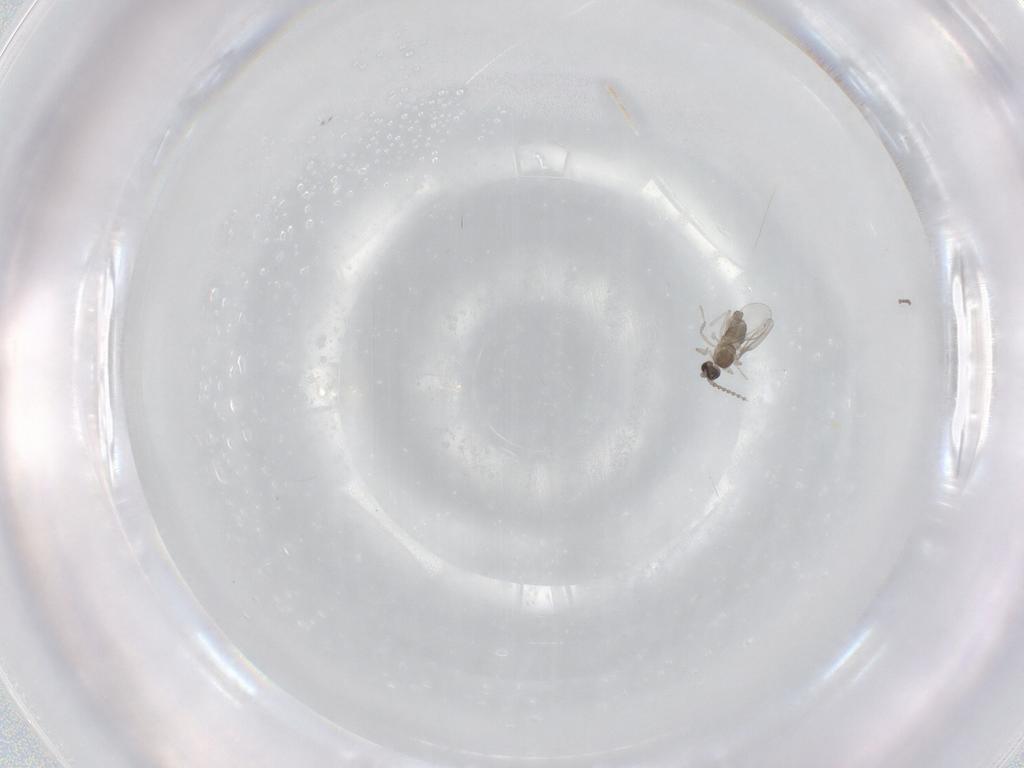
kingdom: Animalia
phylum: Arthropoda
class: Insecta
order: Diptera
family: Cecidomyiidae
